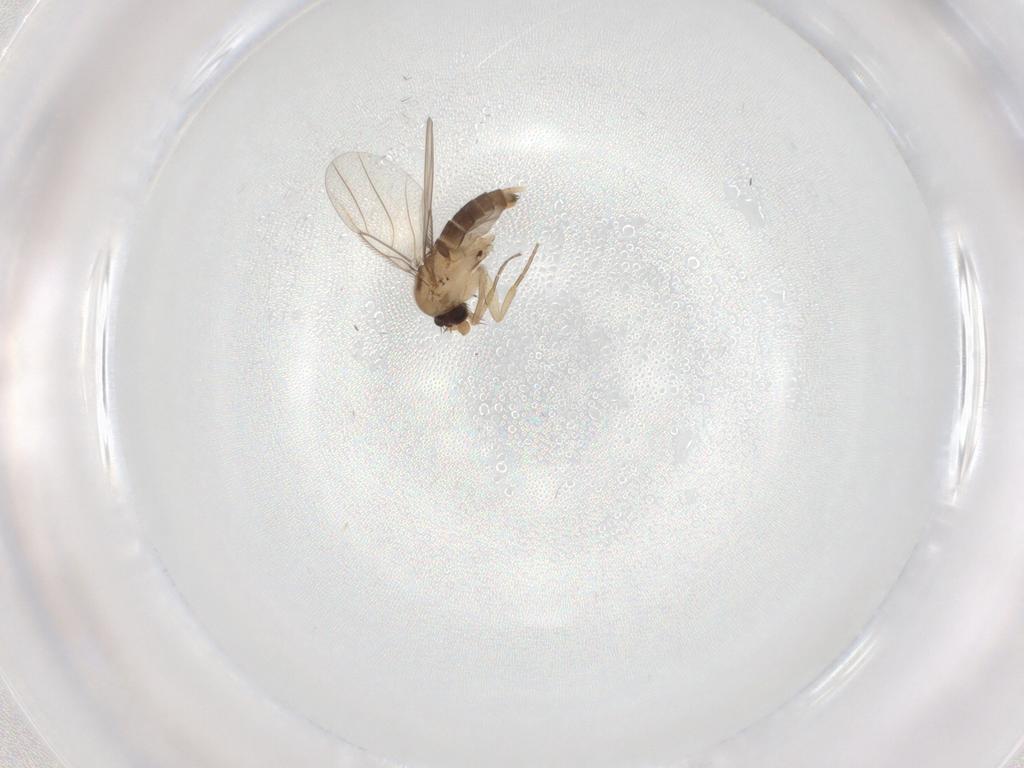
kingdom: Animalia
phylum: Arthropoda
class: Insecta
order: Diptera
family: Phoridae
